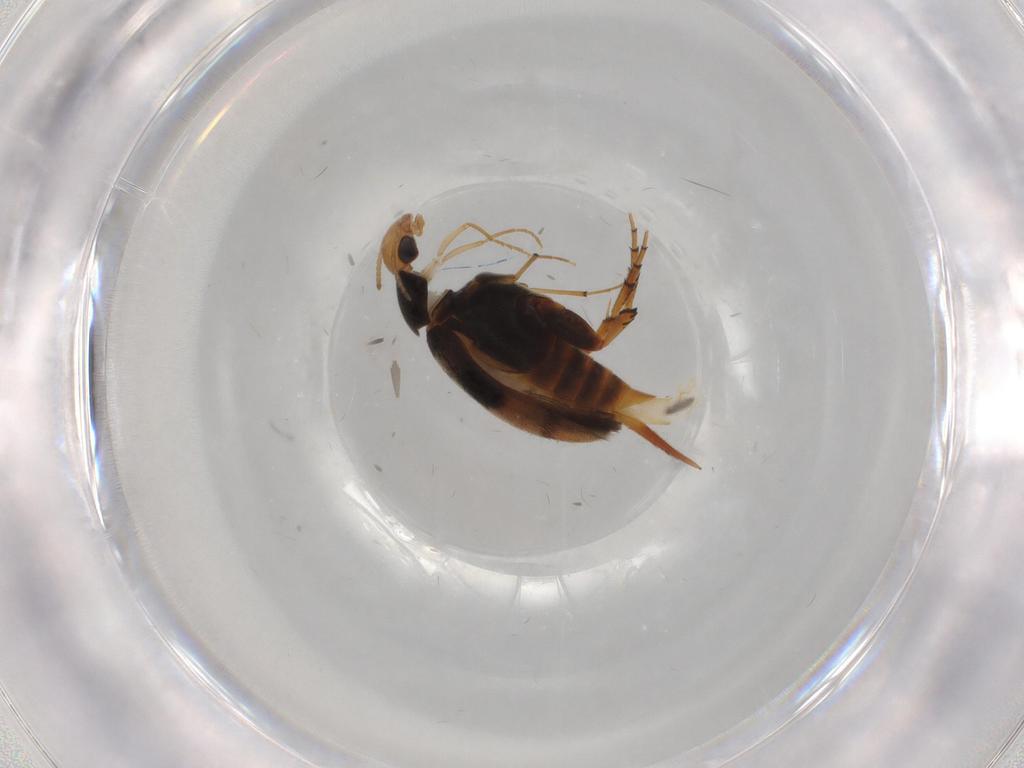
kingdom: Animalia
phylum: Arthropoda
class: Insecta
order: Coleoptera
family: Mordellidae
